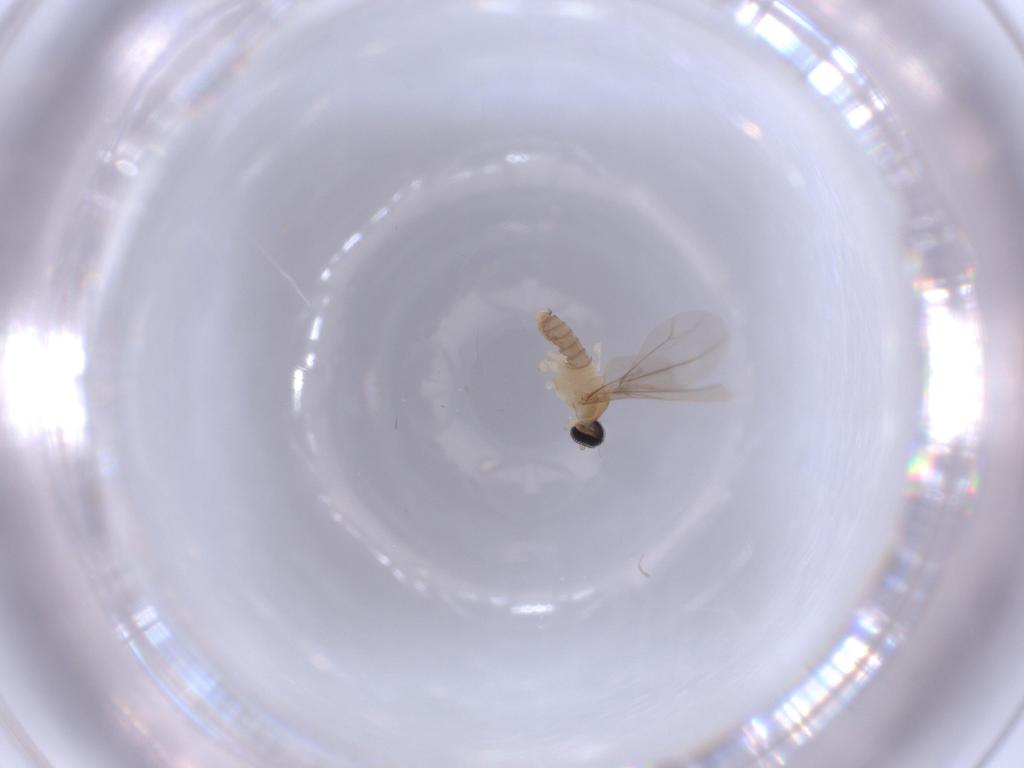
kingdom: Animalia
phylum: Arthropoda
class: Insecta
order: Diptera
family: Cecidomyiidae
